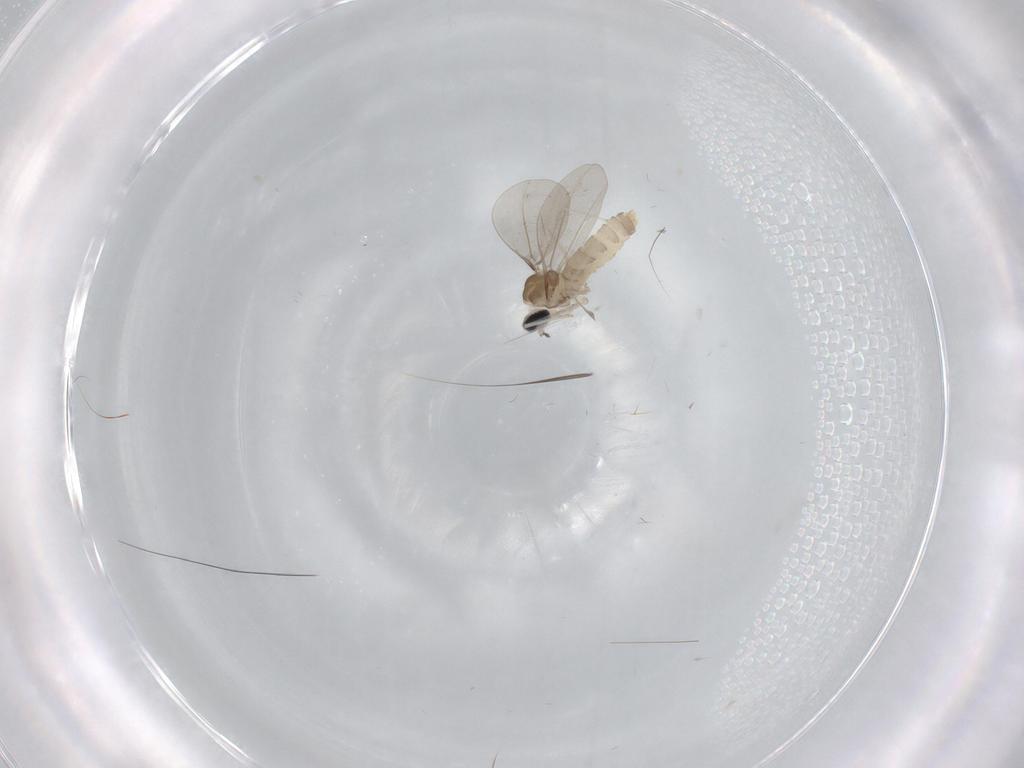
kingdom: Animalia
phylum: Arthropoda
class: Insecta
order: Diptera
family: Cecidomyiidae
